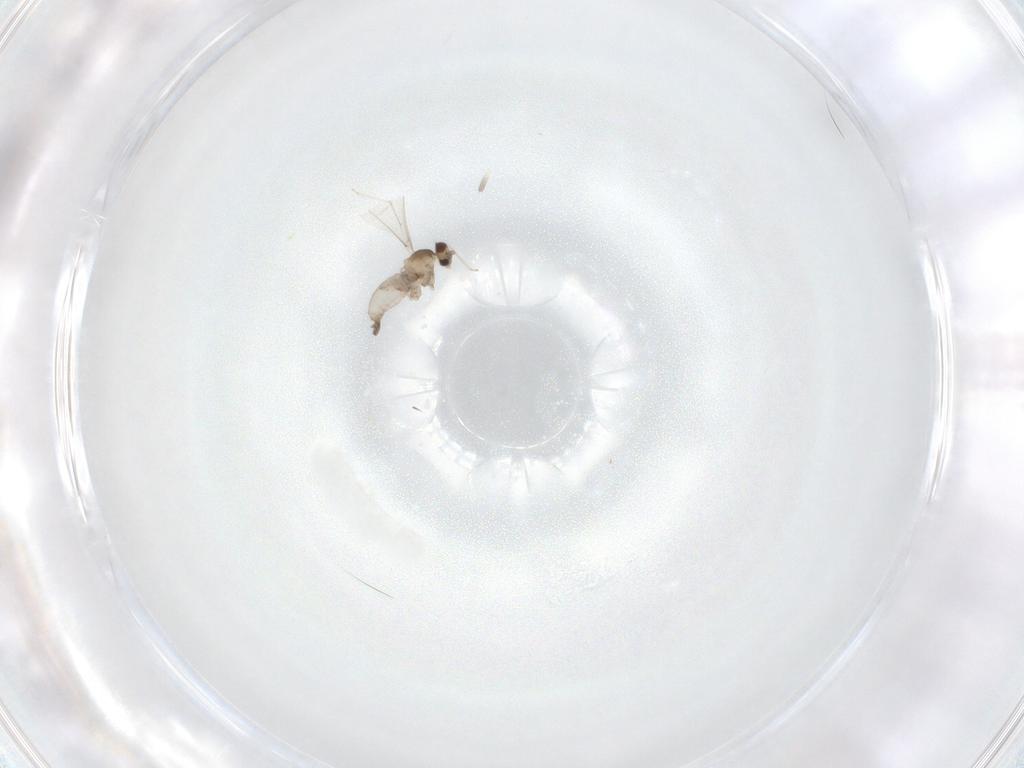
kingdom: Animalia
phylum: Arthropoda
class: Insecta
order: Diptera
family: Cecidomyiidae
